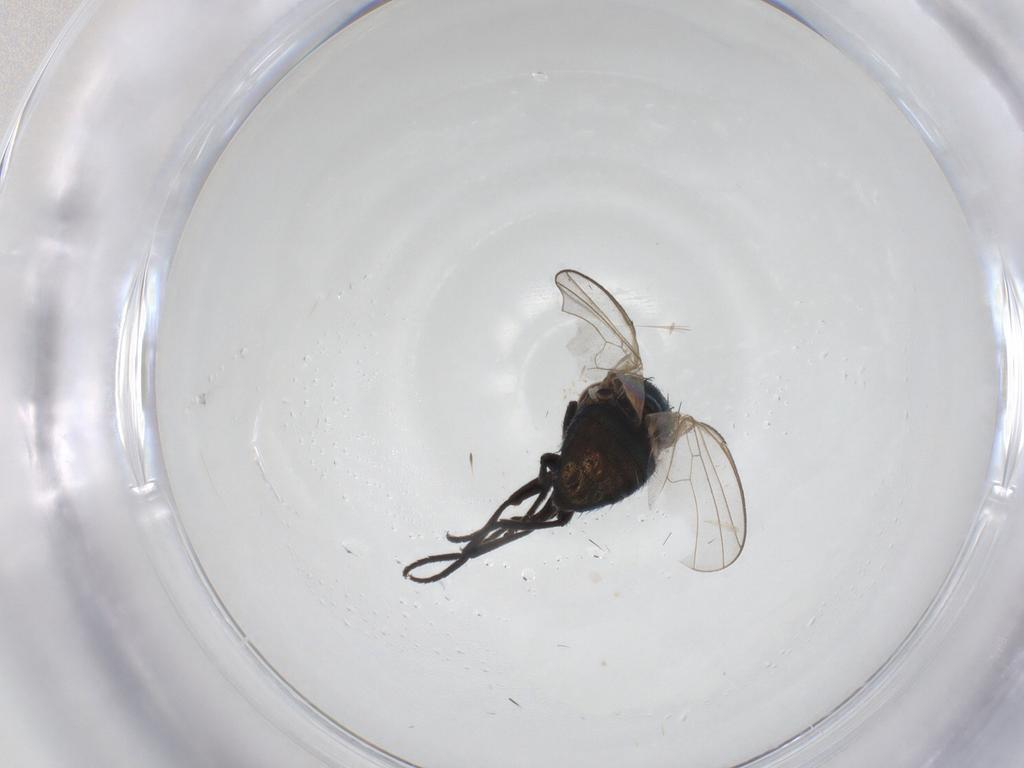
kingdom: Animalia
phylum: Arthropoda
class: Insecta
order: Diptera
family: Agromyzidae
